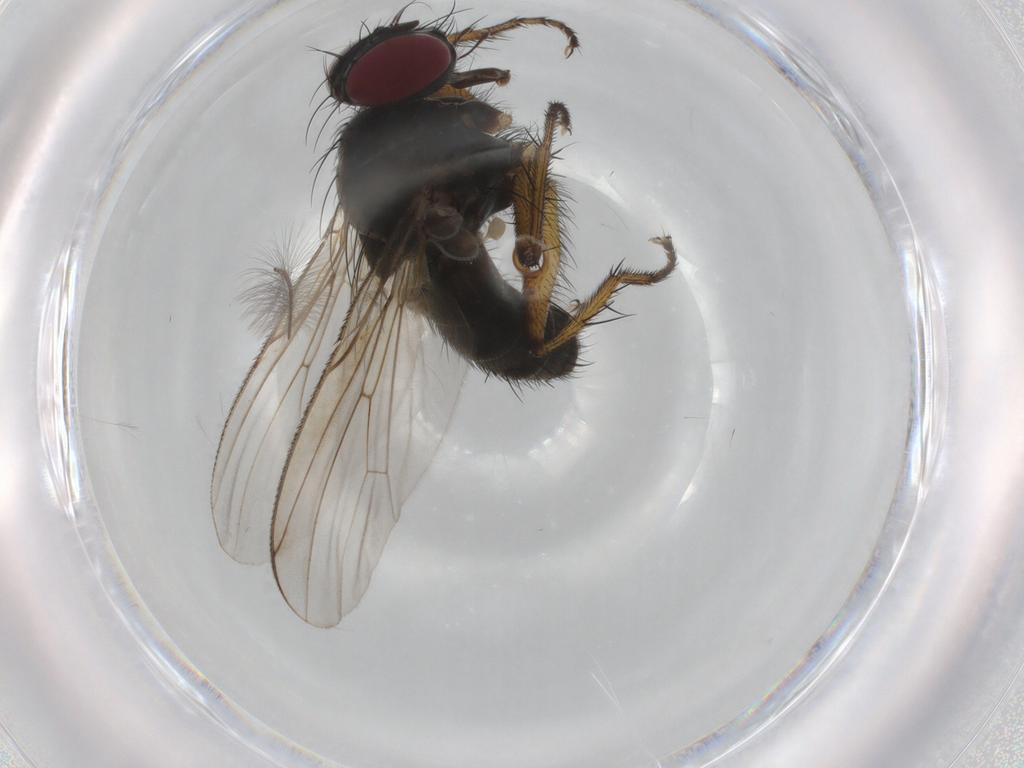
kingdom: Animalia
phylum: Arthropoda
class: Insecta
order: Diptera
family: Muscidae
